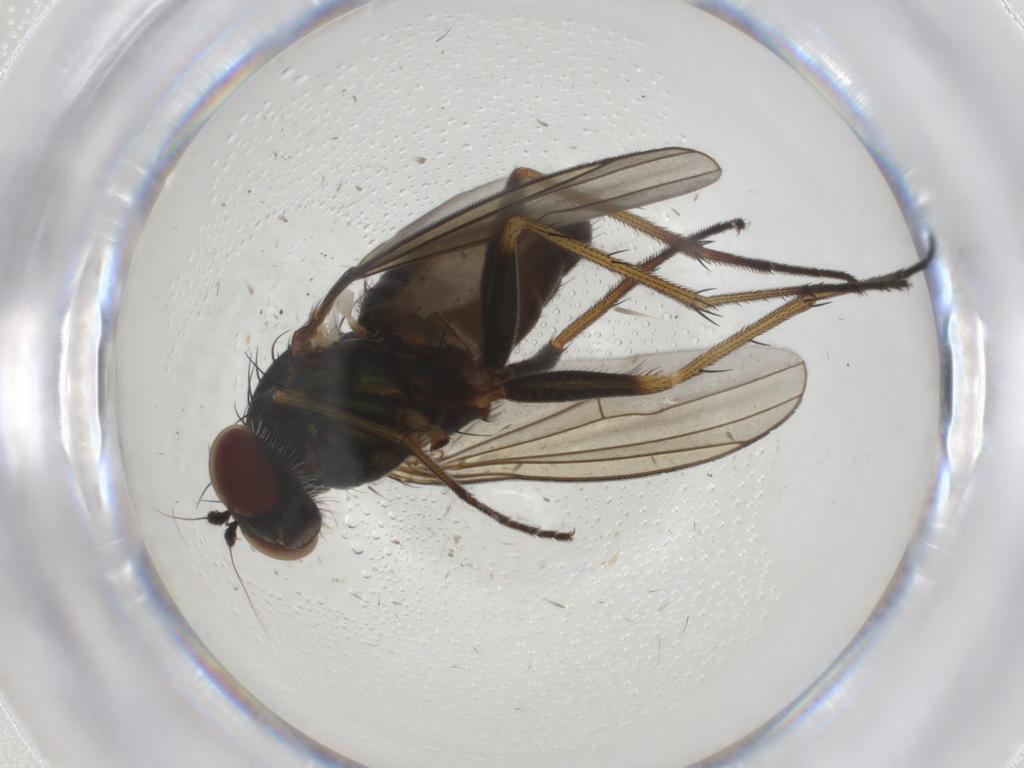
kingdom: Animalia
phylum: Arthropoda
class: Insecta
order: Diptera
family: Dolichopodidae
